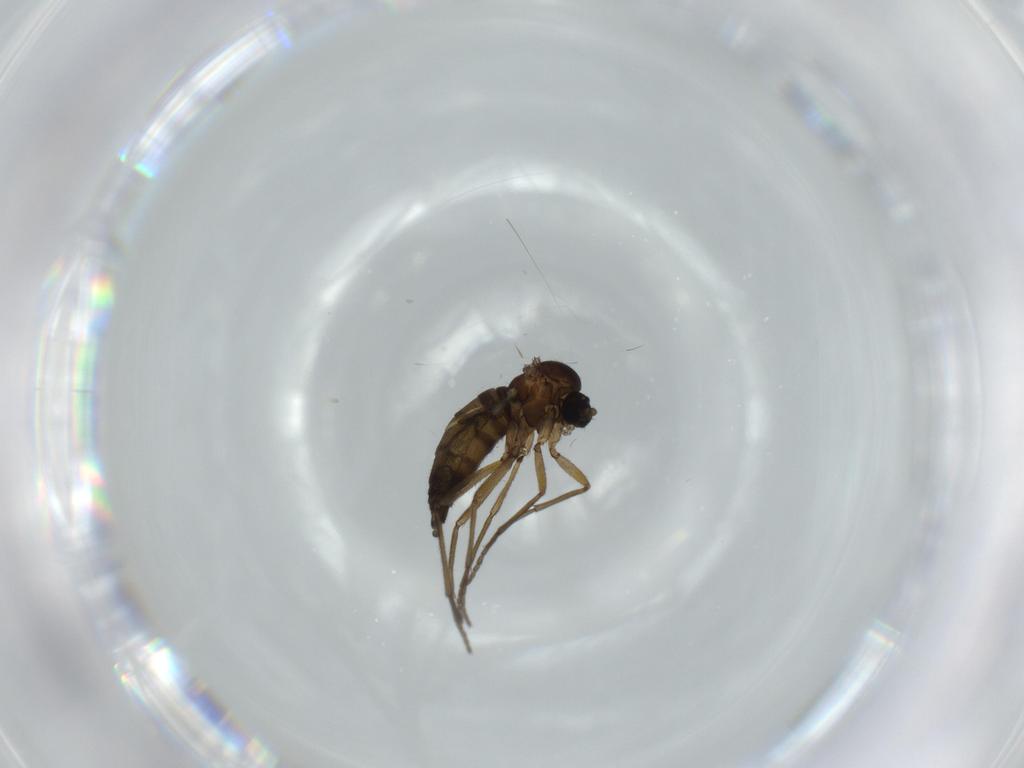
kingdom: Animalia
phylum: Arthropoda
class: Insecta
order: Diptera
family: Sciaridae
